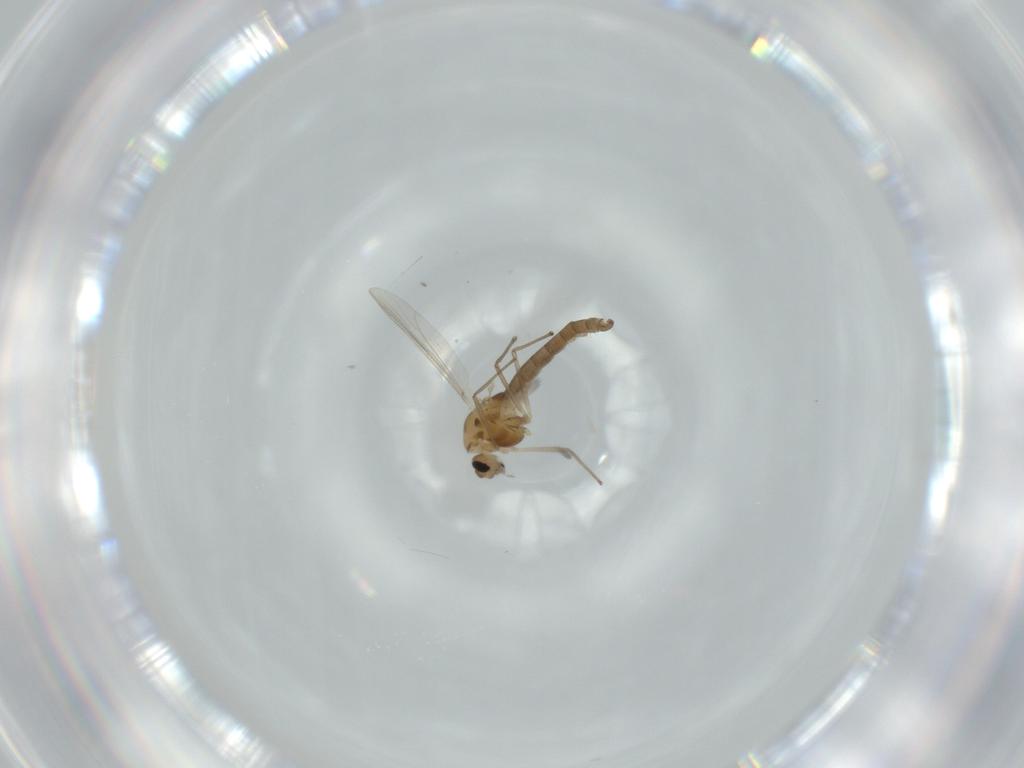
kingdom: Animalia
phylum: Arthropoda
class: Insecta
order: Diptera
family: Chironomidae
